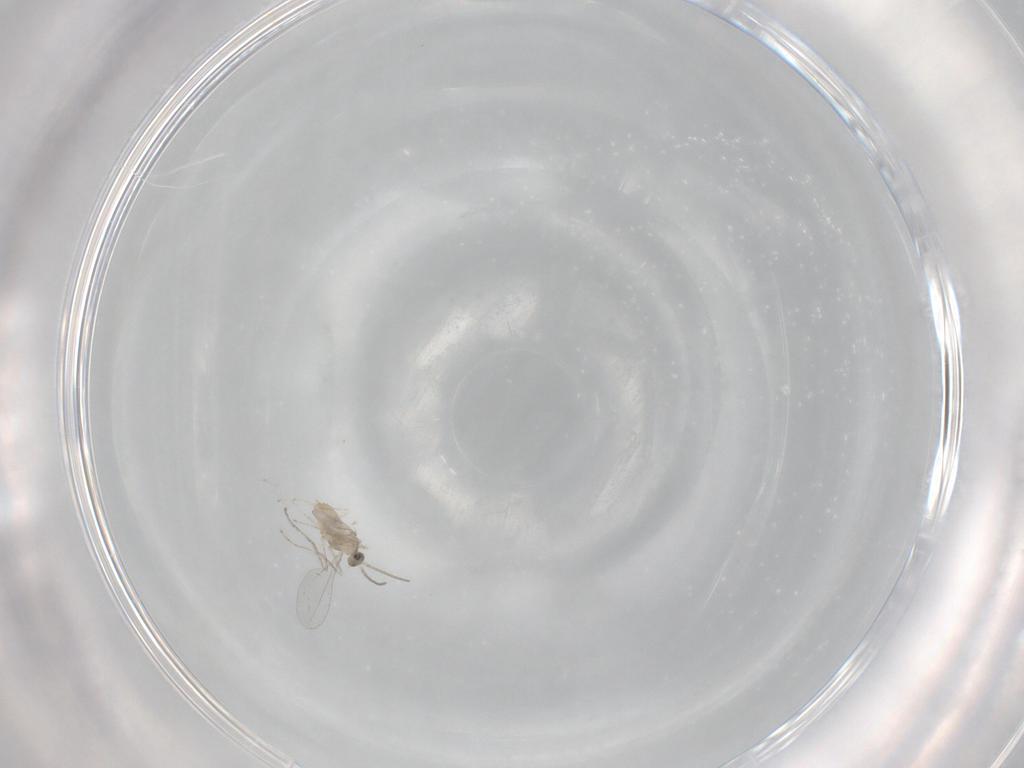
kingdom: Animalia
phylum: Arthropoda
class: Insecta
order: Diptera
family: Cecidomyiidae
